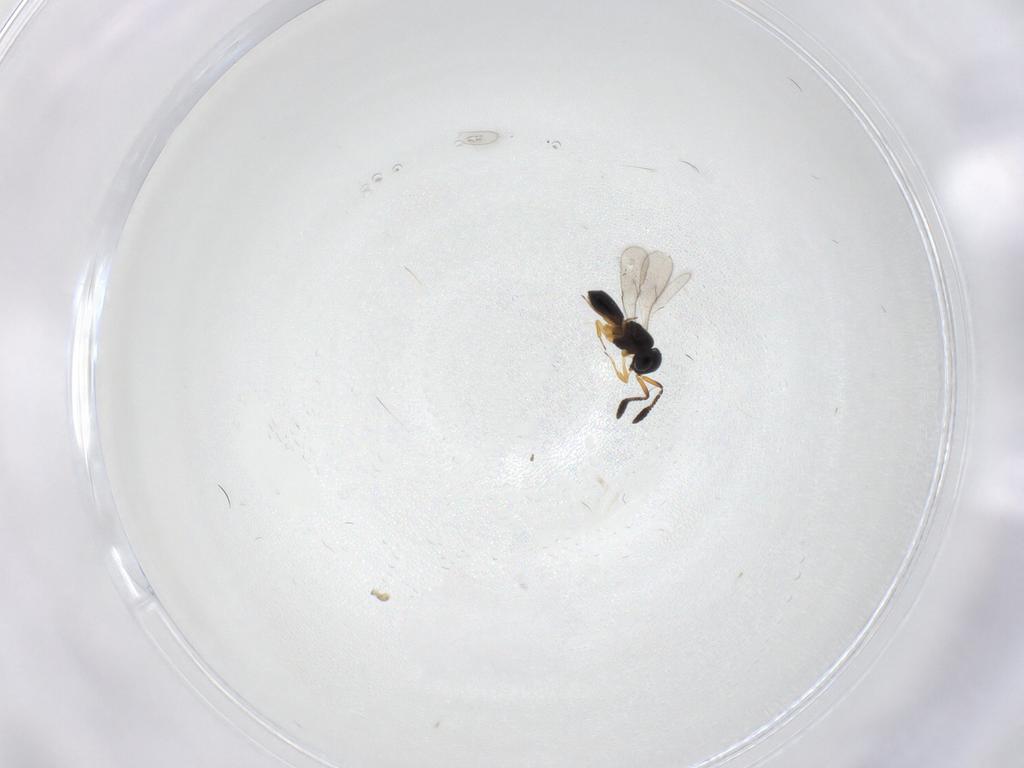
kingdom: Animalia
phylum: Arthropoda
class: Insecta
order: Hymenoptera
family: Scelionidae
